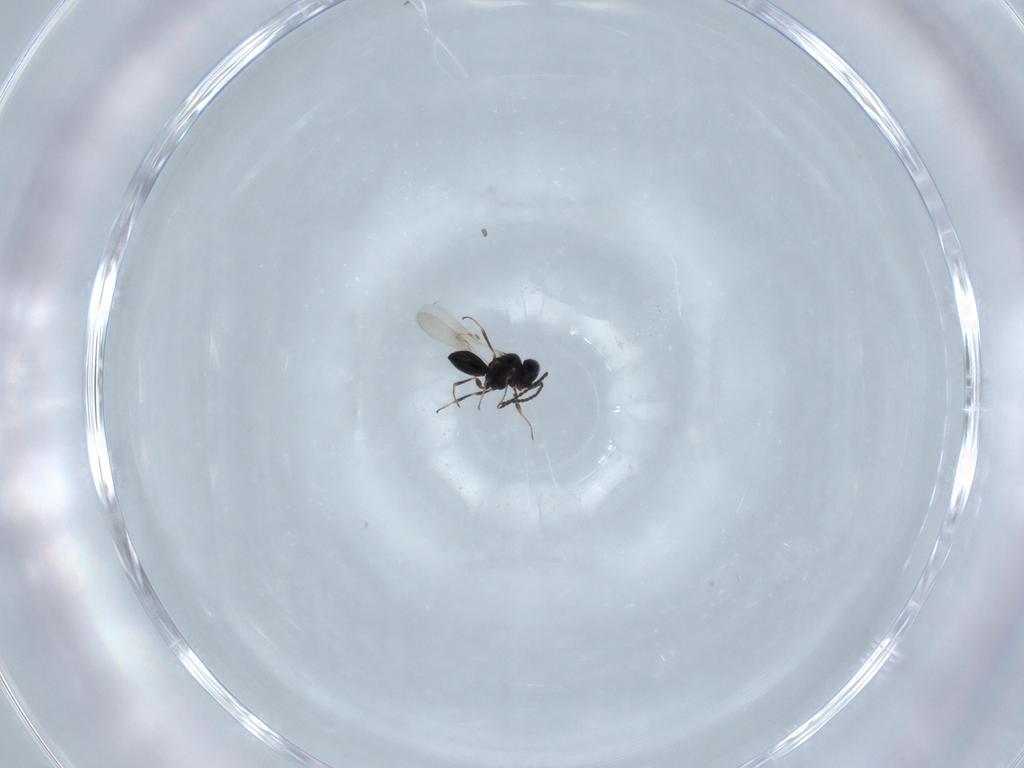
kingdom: Animalia
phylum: Arthropoda
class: Insecta
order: Hymenoptera
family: Scelionidae
